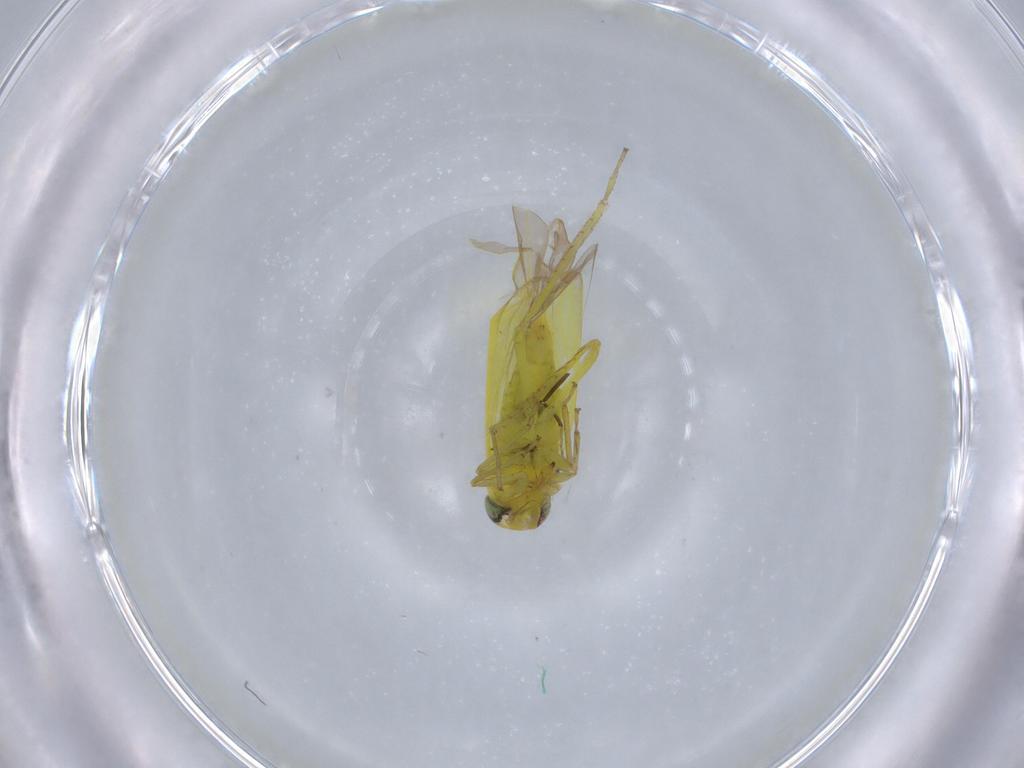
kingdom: Animalia
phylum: Arthropoda
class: Insecta
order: Hemiptera
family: Cicadellidae
